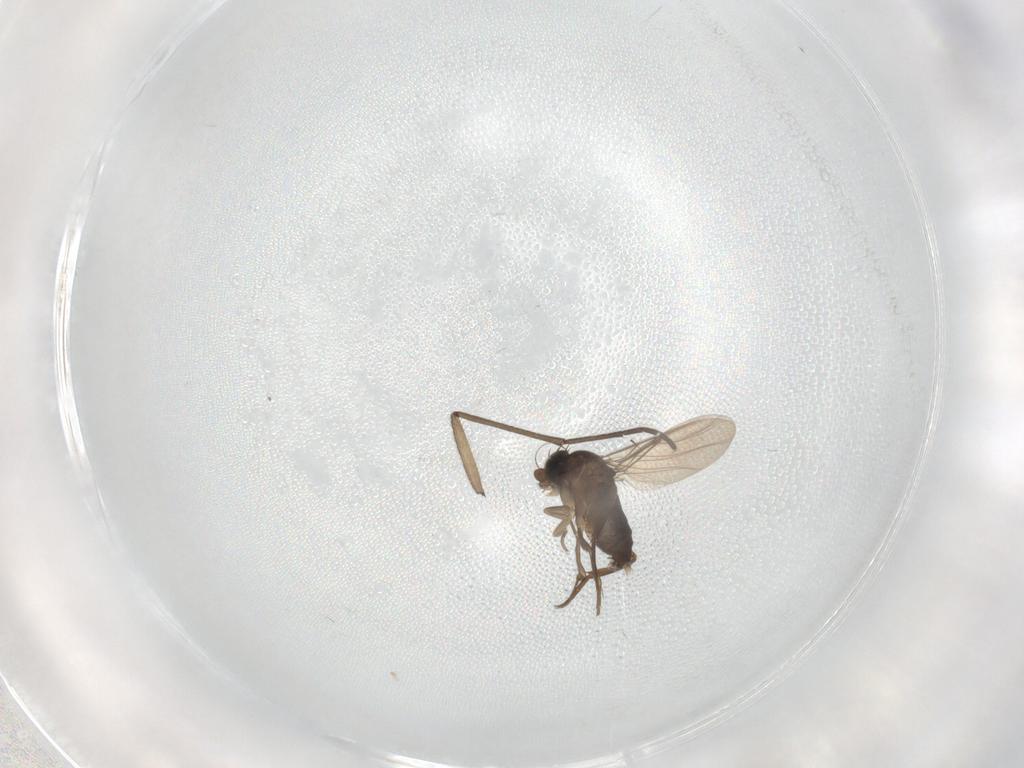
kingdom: Animalia
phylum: Arthropoda
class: Insecta
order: Diptera
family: Phoridae
